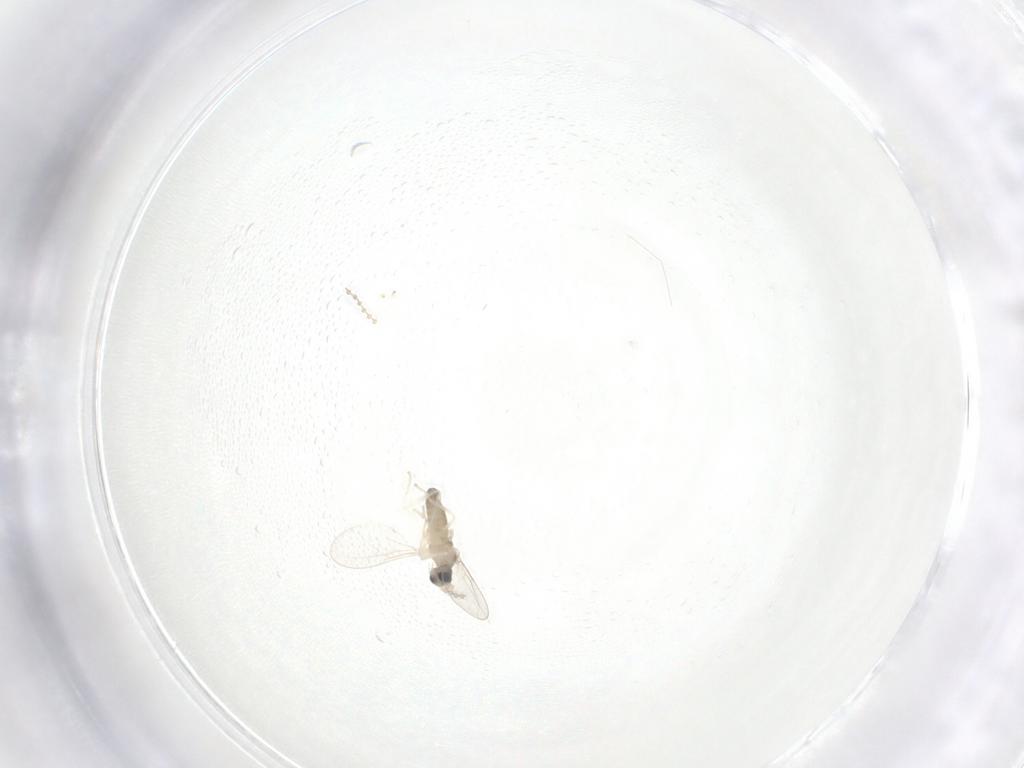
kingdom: Animalia
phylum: Arthropoda
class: Insecta
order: Diptera
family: Cecidomyiidae
